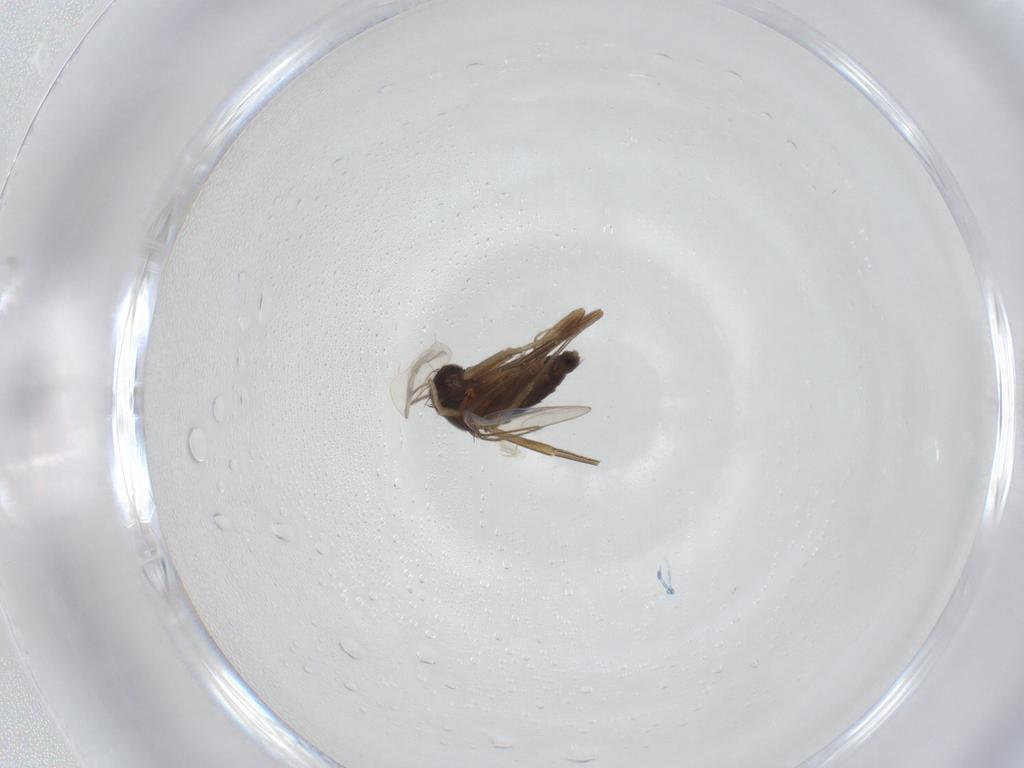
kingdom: Animalia
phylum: Arthropoda
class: Insecta
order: Diptera
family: Phoridae
